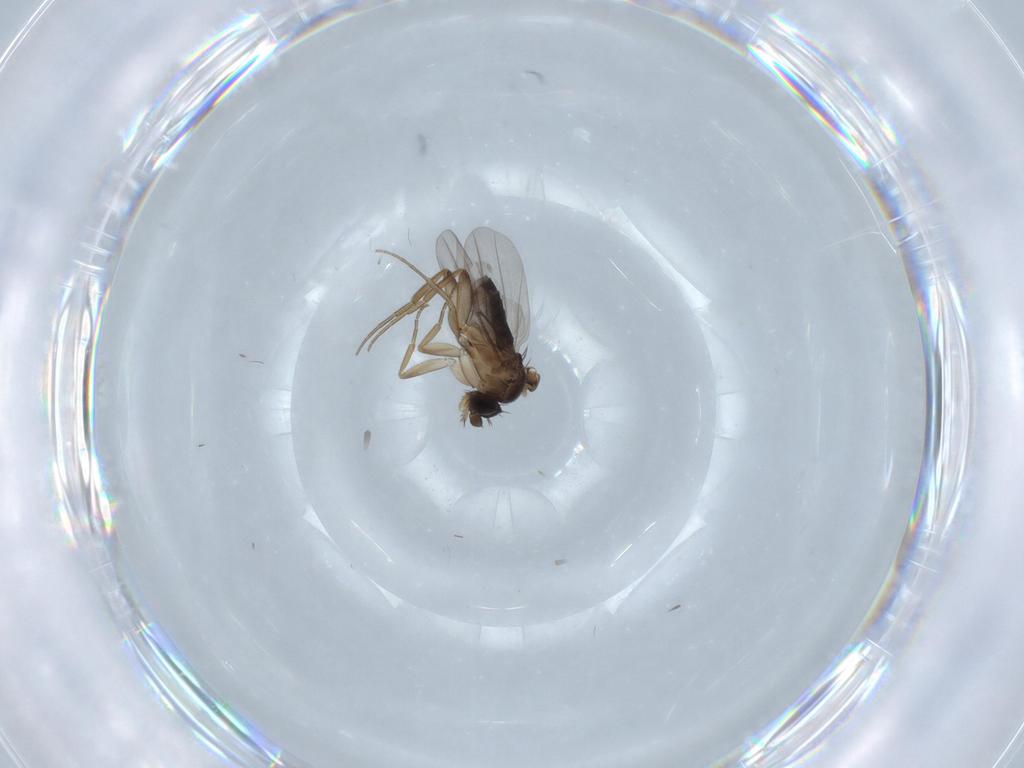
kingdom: Animalia
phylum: Arthropoda
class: Insecta
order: Diptera
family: Phoridae
